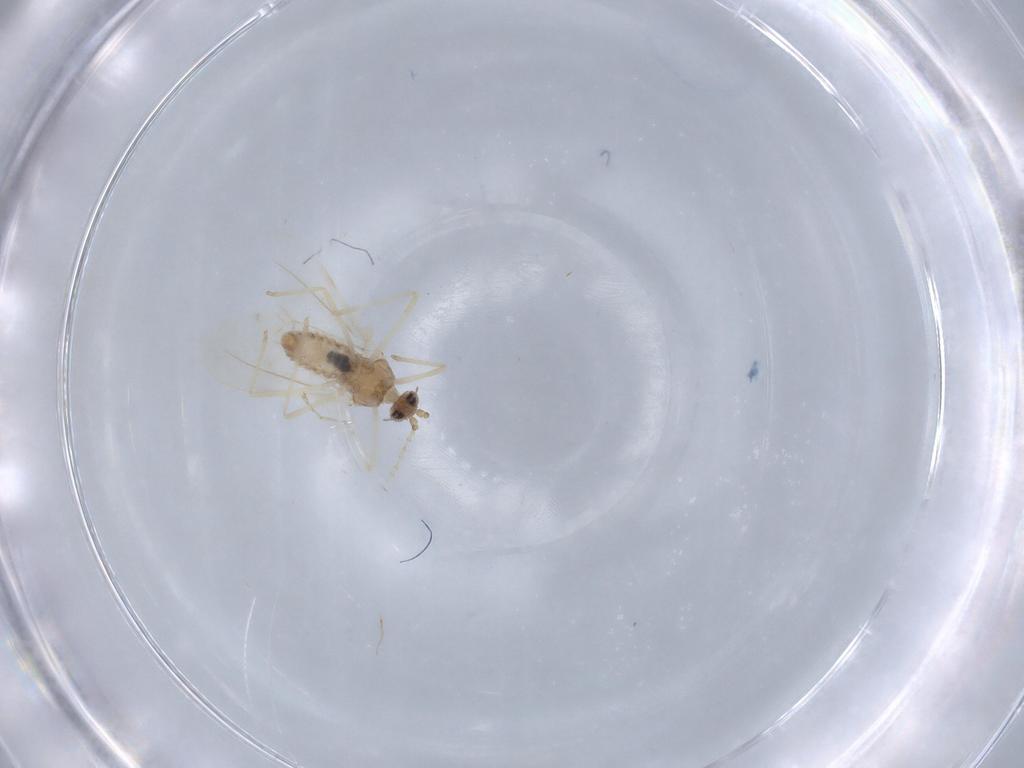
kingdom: Animalia
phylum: Arthropoda
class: Insecta
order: Diptera
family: Cecidomyiidae
